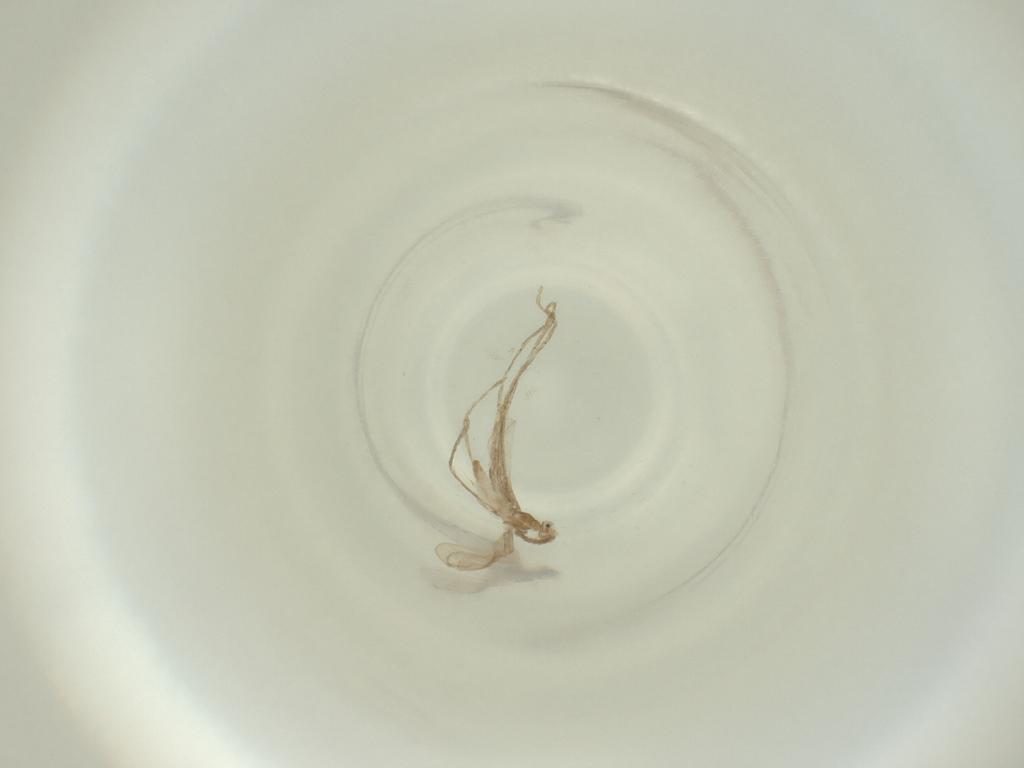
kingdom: Animalia
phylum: Arthropoda
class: Insecta
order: Diptera
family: Cecidomyiidae
